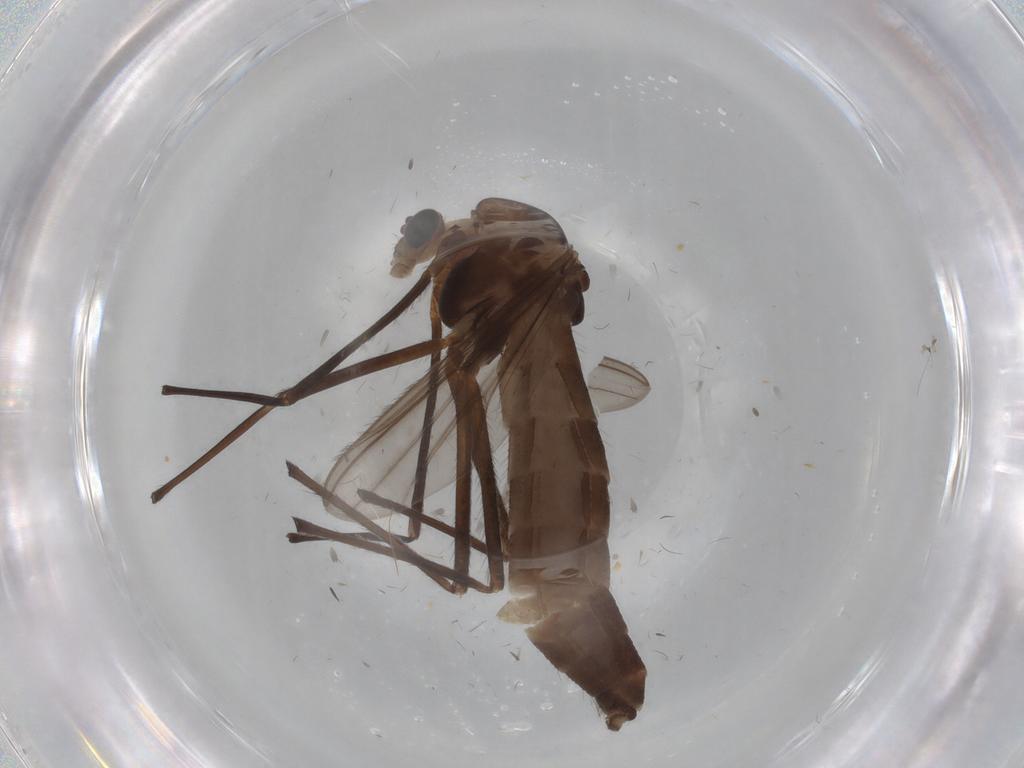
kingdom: Animalia
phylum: Arthropoda
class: Insecta
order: Diptera
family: Chironomidae
